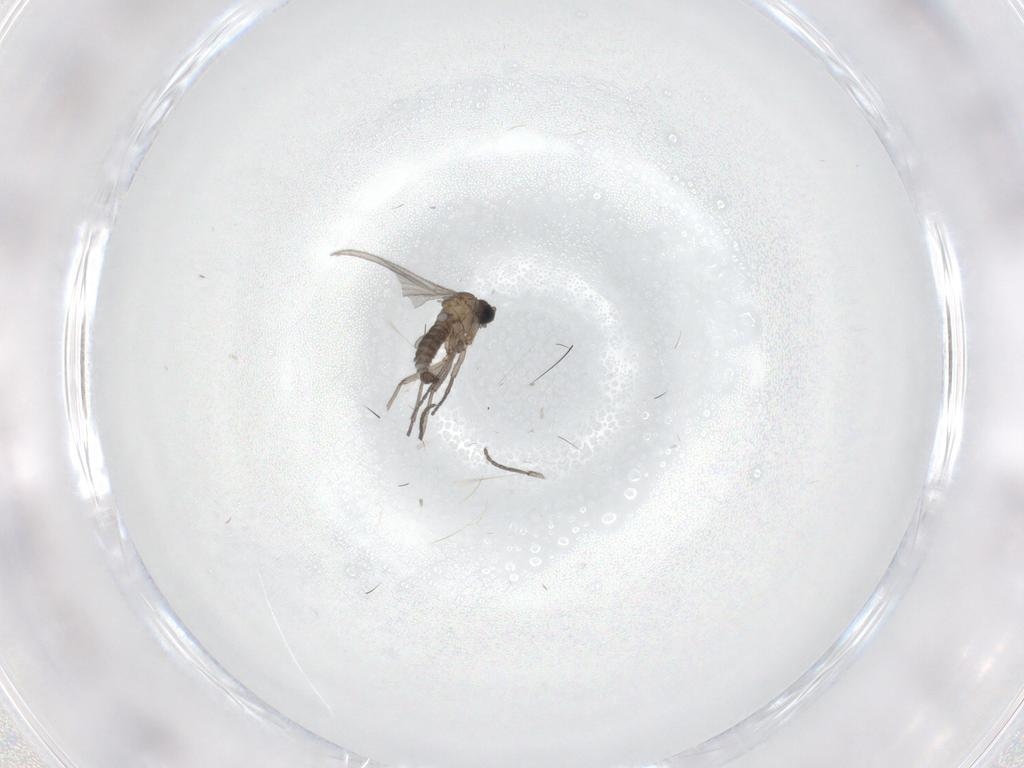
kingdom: Animalia
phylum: Arthropoda
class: Insecta
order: Diptera
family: Sciaridae
